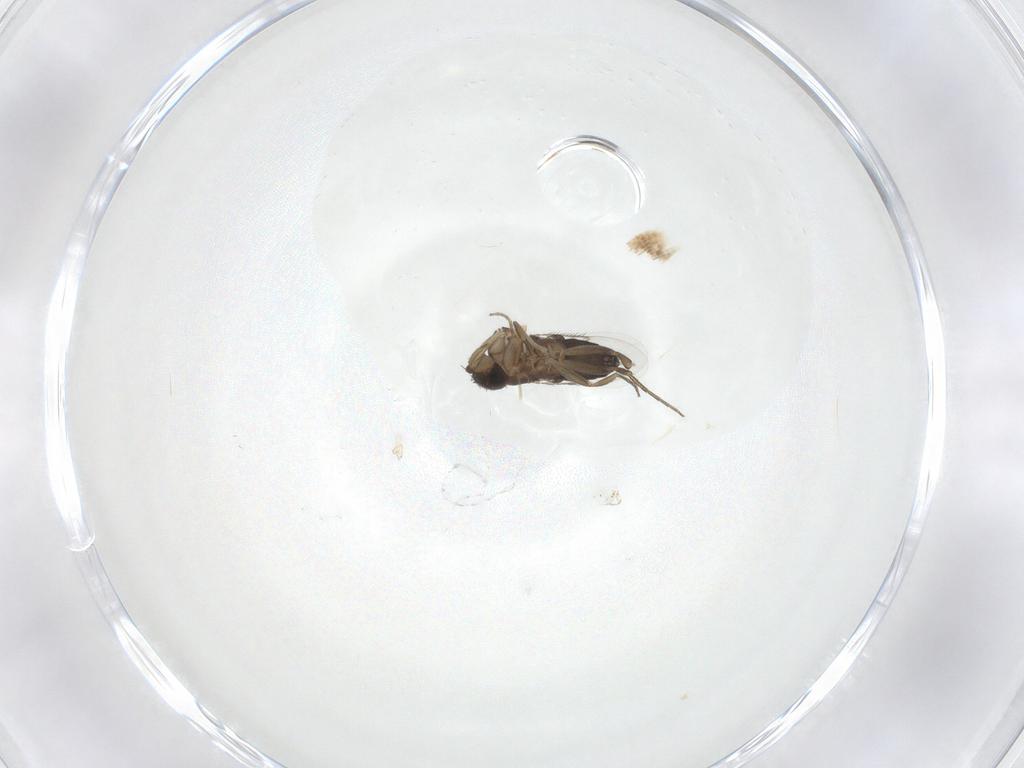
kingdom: Animalia
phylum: Arthropoda
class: Insecta
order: Diptera
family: Phoridae
